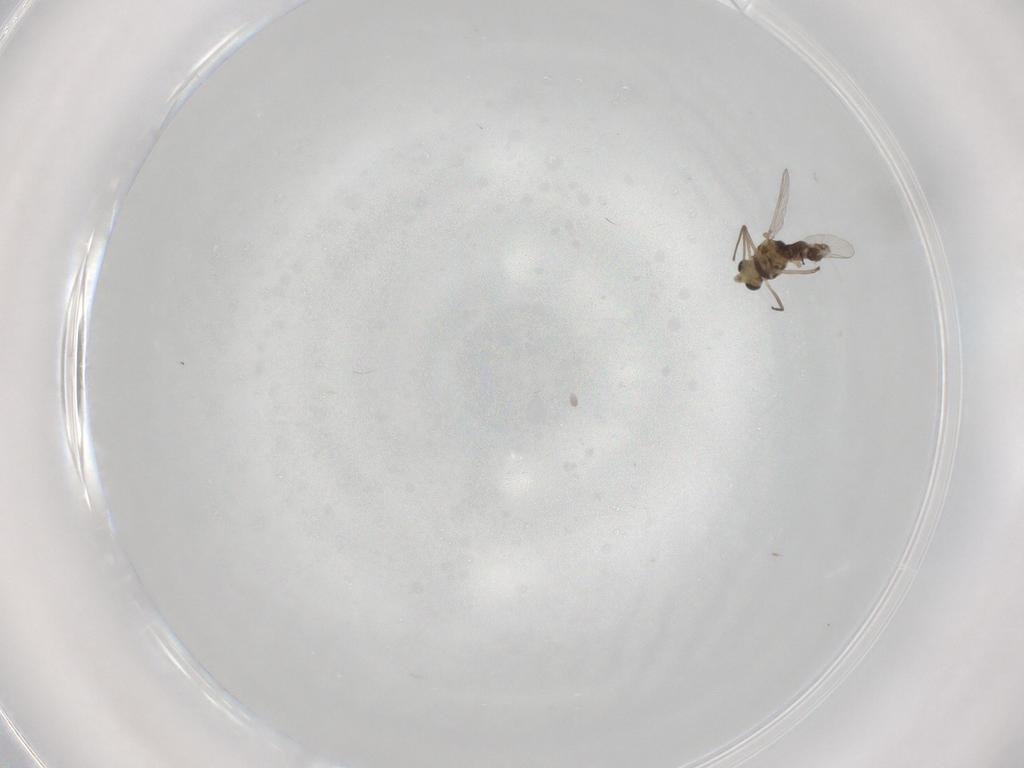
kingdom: Animalia
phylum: Arthropoda
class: Insecta
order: Diptera
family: Chironomidae
